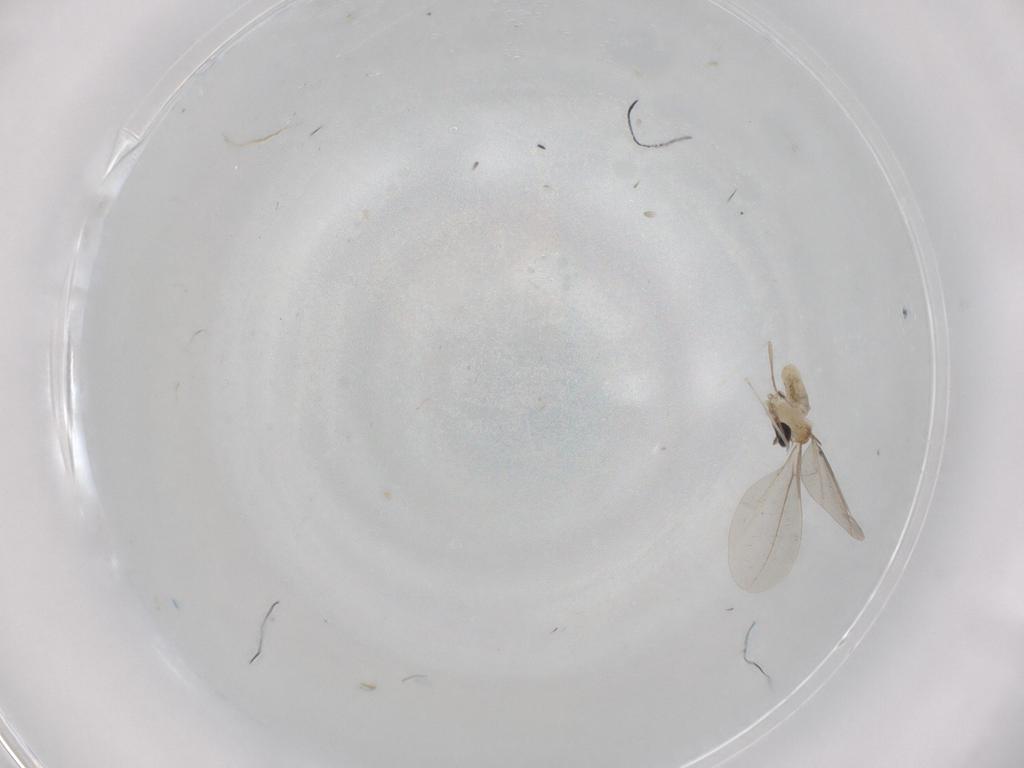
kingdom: Animalia
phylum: Arthropoda
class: Insecta
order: Diptera
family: Cecidomyiidae
